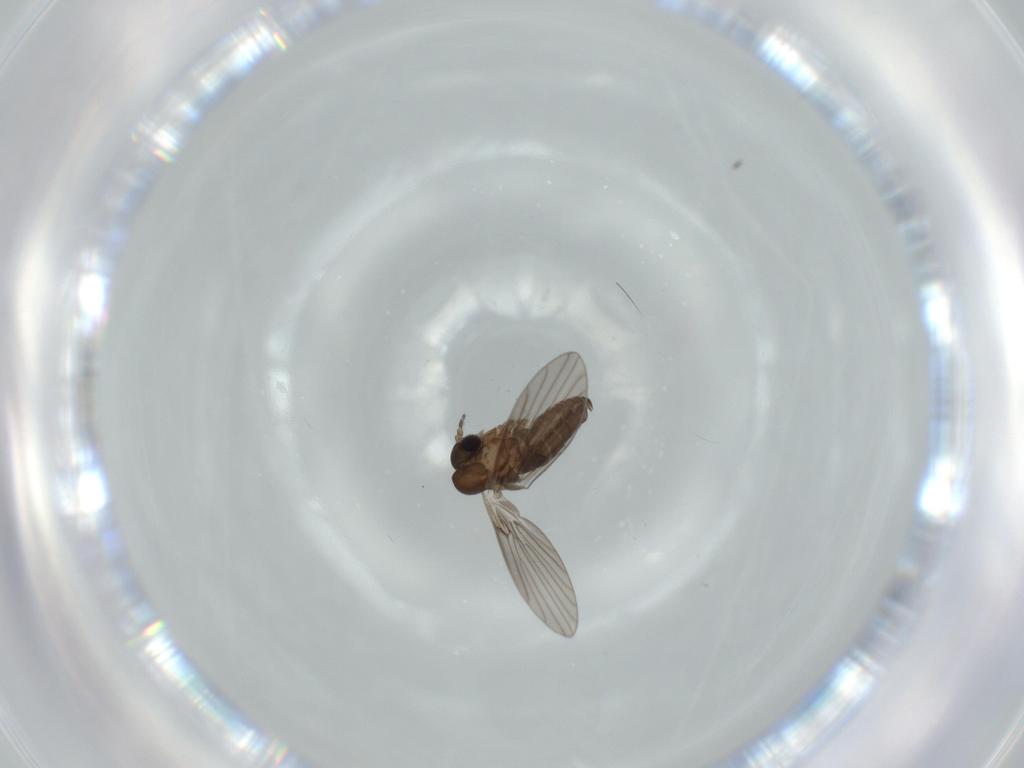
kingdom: Animalia
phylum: Arthropoda
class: Insecta
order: Diptera
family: Psychodidae
